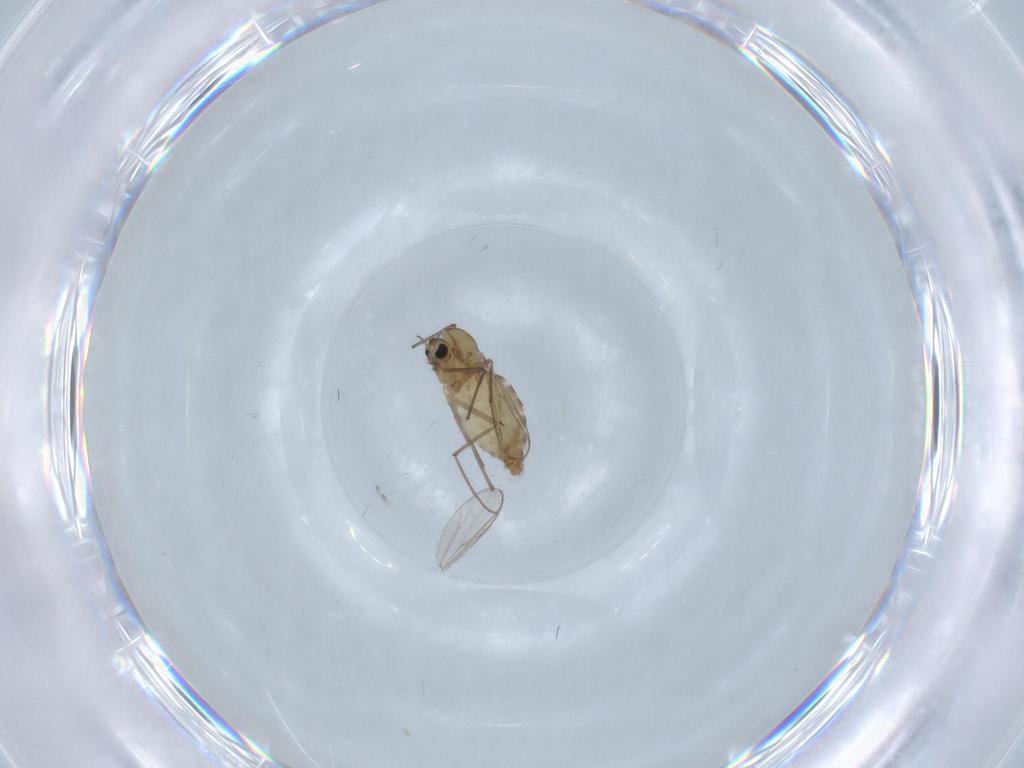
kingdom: Animalia
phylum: Arthropoda
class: Insecta
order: Diptera
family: Chironomidae
